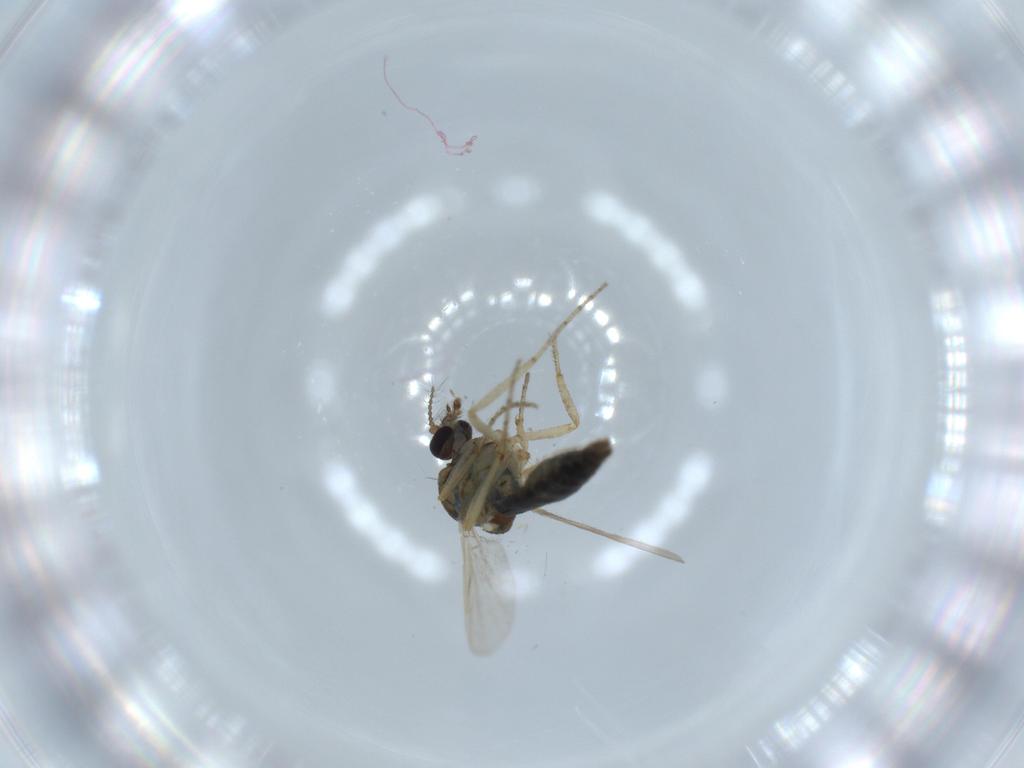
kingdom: Animalia
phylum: Arthropoda
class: Insecta
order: Diptera
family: Ceratopogonidae
